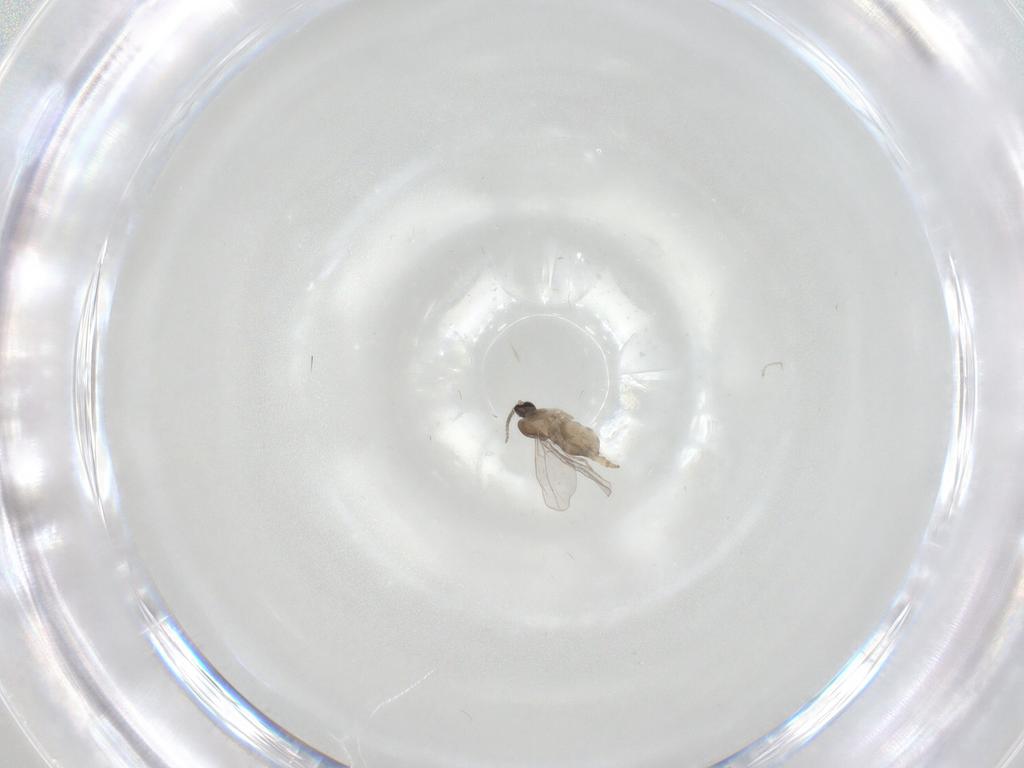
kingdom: Animalia
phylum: Arthropoda
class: Insecta
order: Diptera
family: Cecidomyiidae
